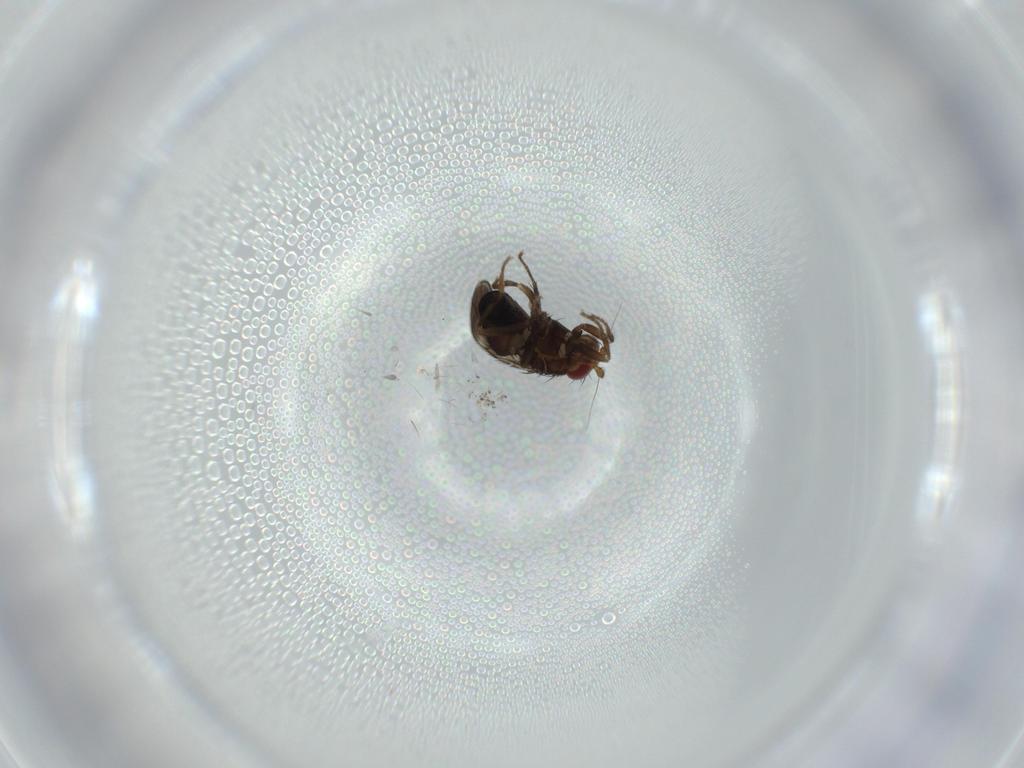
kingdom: Animalia
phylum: Arthropoda
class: Insecta
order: Diptera
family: Sphaeroceridae
